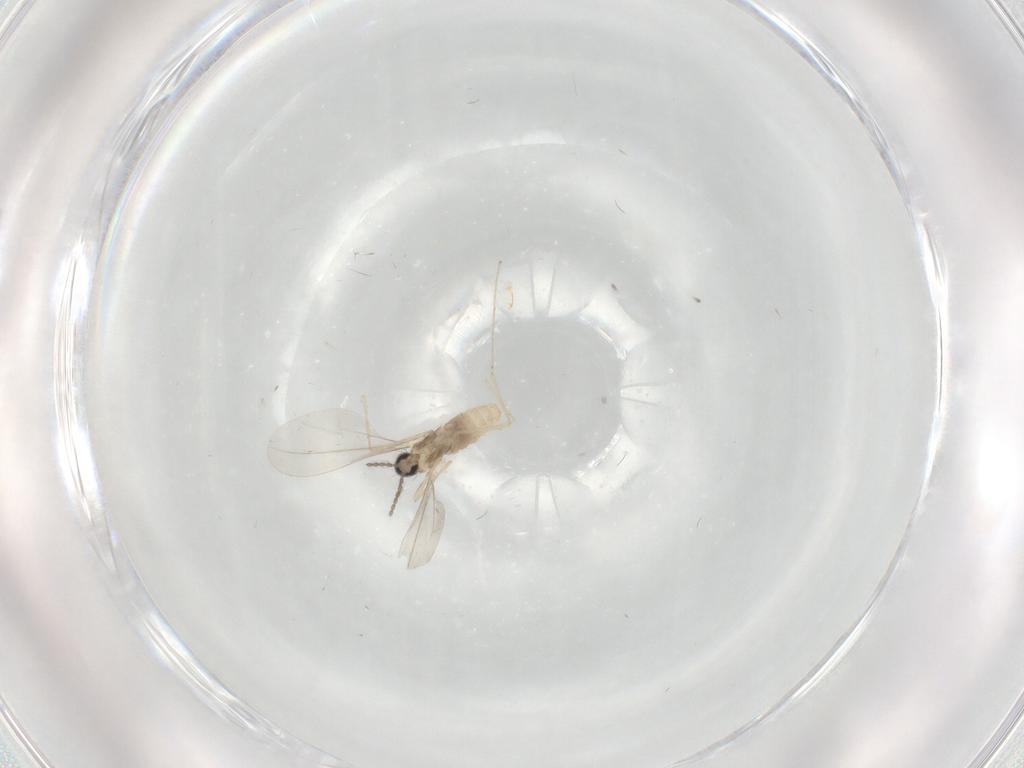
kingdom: Animalia
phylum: Arthropoda
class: Insecta
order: Diptera
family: Cecidomyiidae
